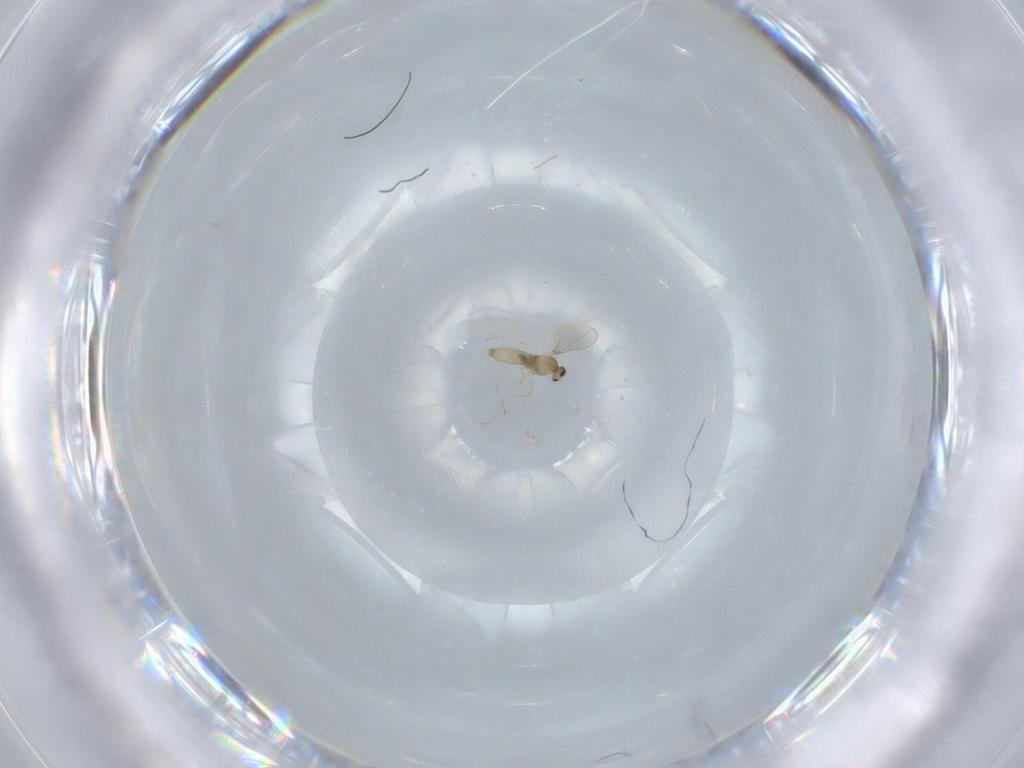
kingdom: Animalia
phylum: Arthropoda
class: Insecta
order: Diptera
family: Cecidomyiidae
